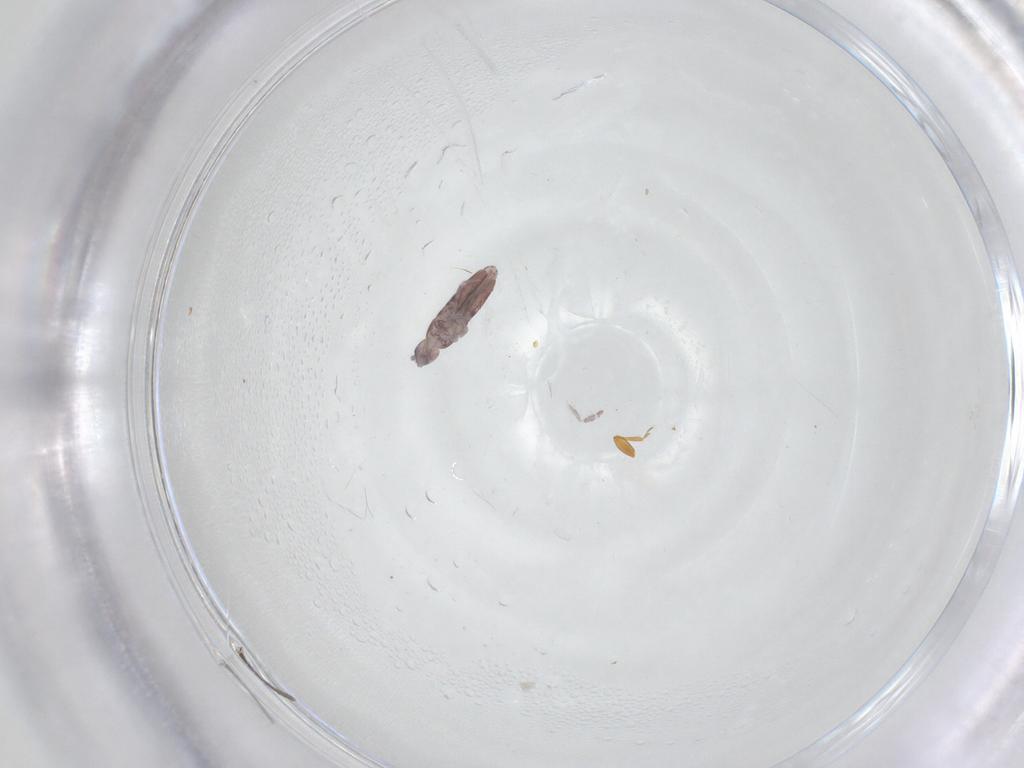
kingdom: Animalia
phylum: Arthropoda
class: Collembola
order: Entomobryomorpha
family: Entomobryidae
